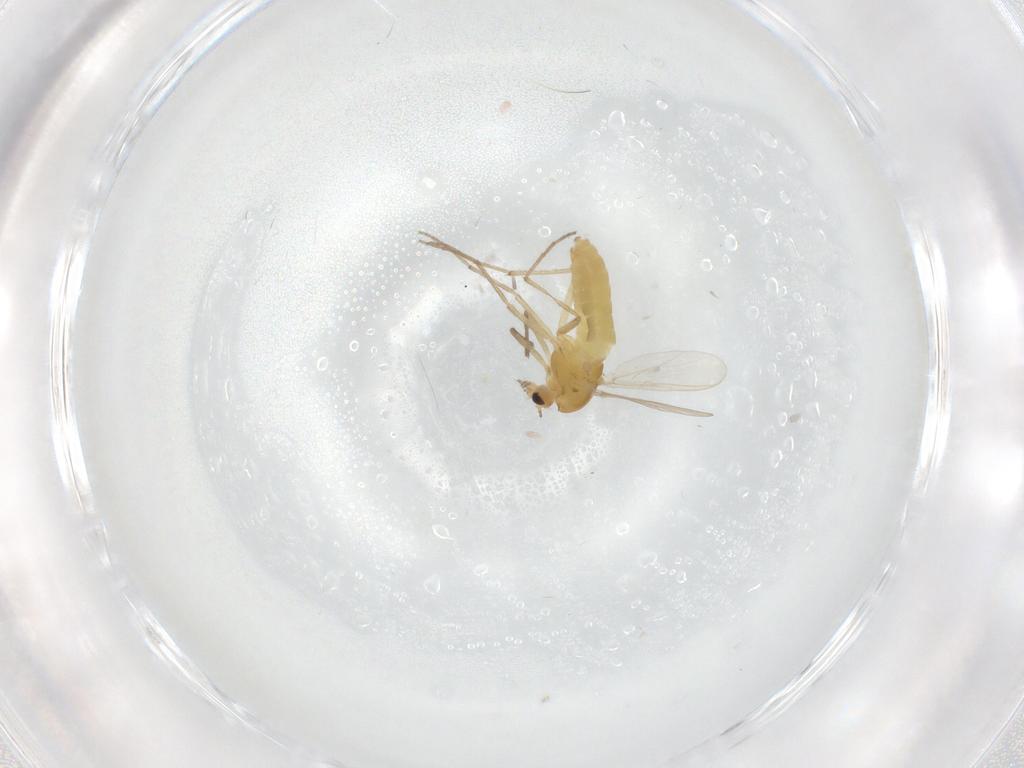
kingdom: Animalia
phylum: Arthropoda
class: Insecta
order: Diptera
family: Chironomidae
